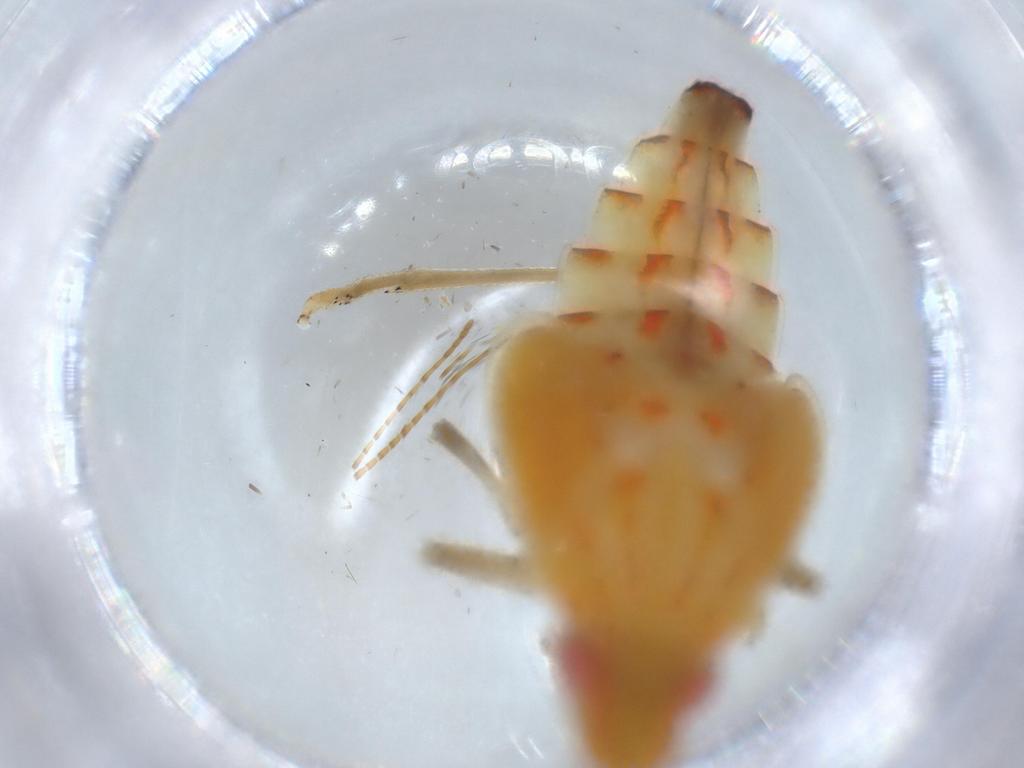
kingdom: Animalia
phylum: Arthropoda
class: Insecta
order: Hemiptera
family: Tropiduchidae
